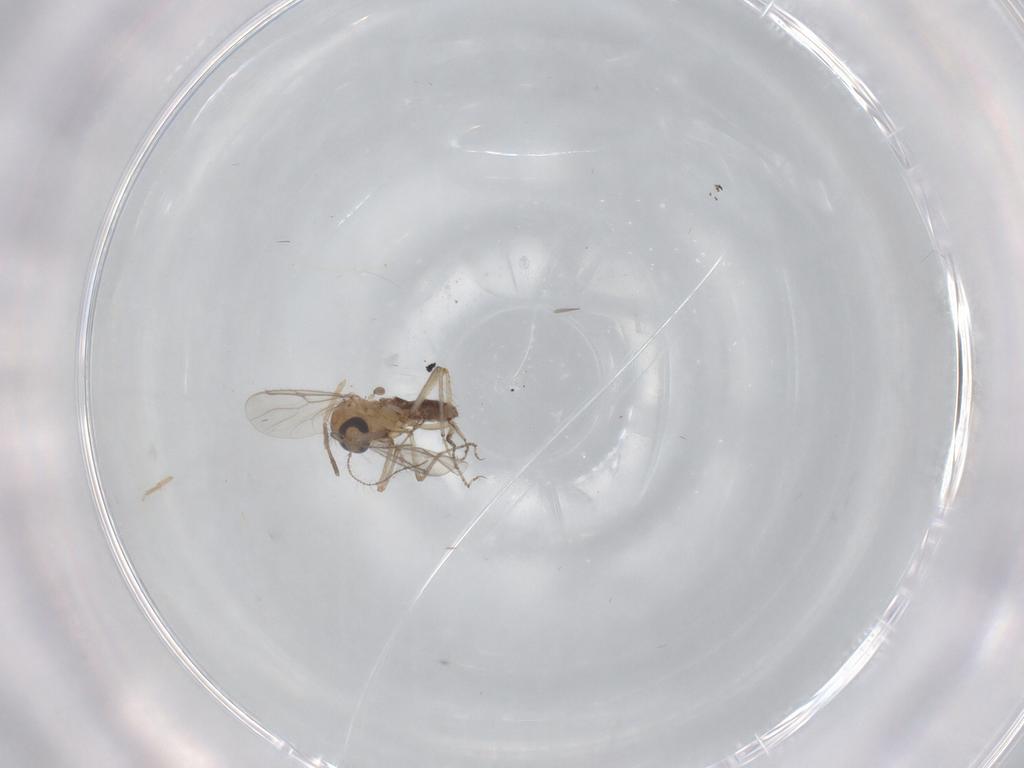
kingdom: Animalia
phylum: Arthropoda
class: Insecta
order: Diptera
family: Ceratopogonidae
